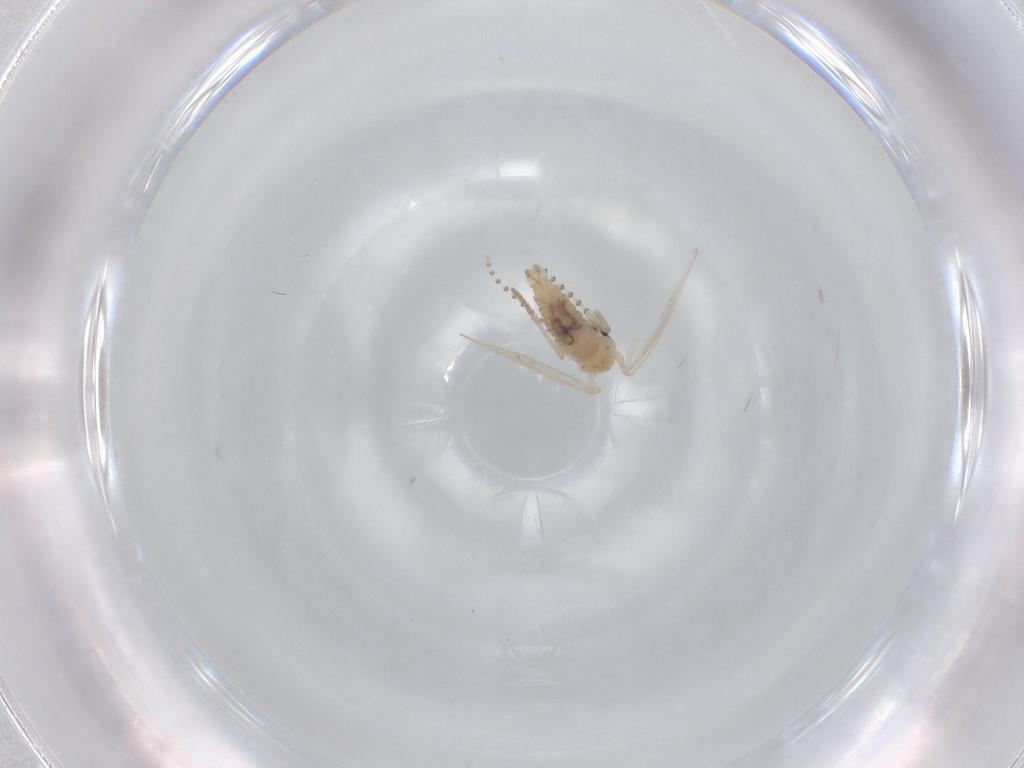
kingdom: Animalia
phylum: Arthropoda
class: Insecta
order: Diptera
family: Psychodidae
